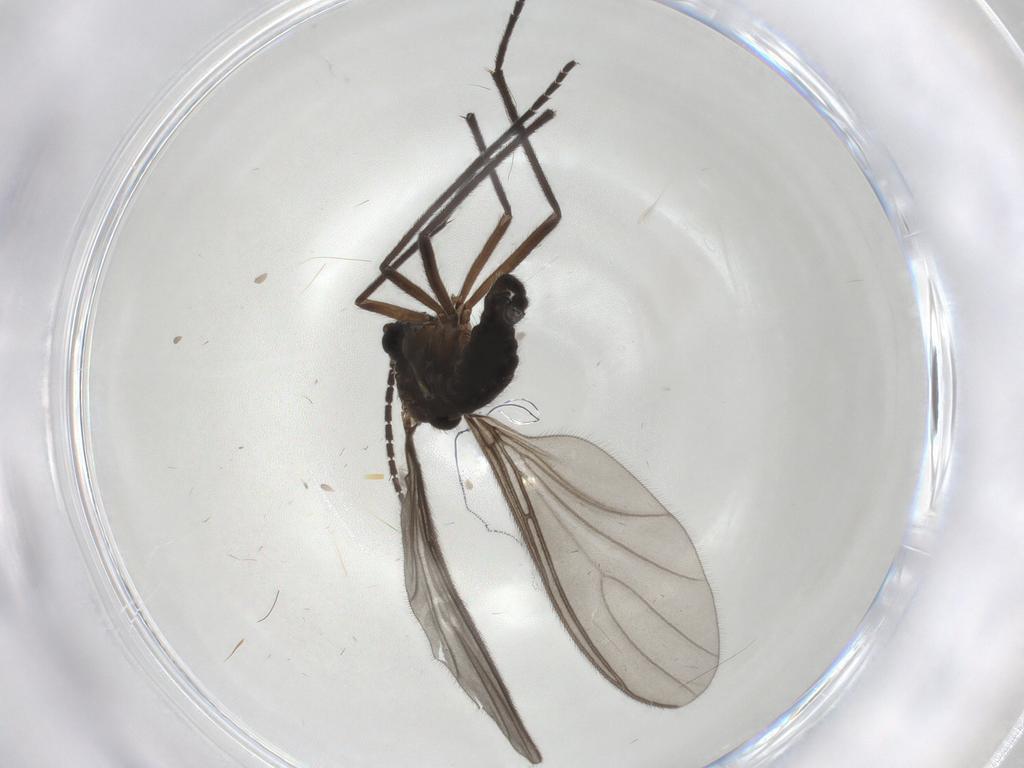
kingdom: Animalia
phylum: Arthropoda
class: Insecta
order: Diptera
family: Sciaridae
